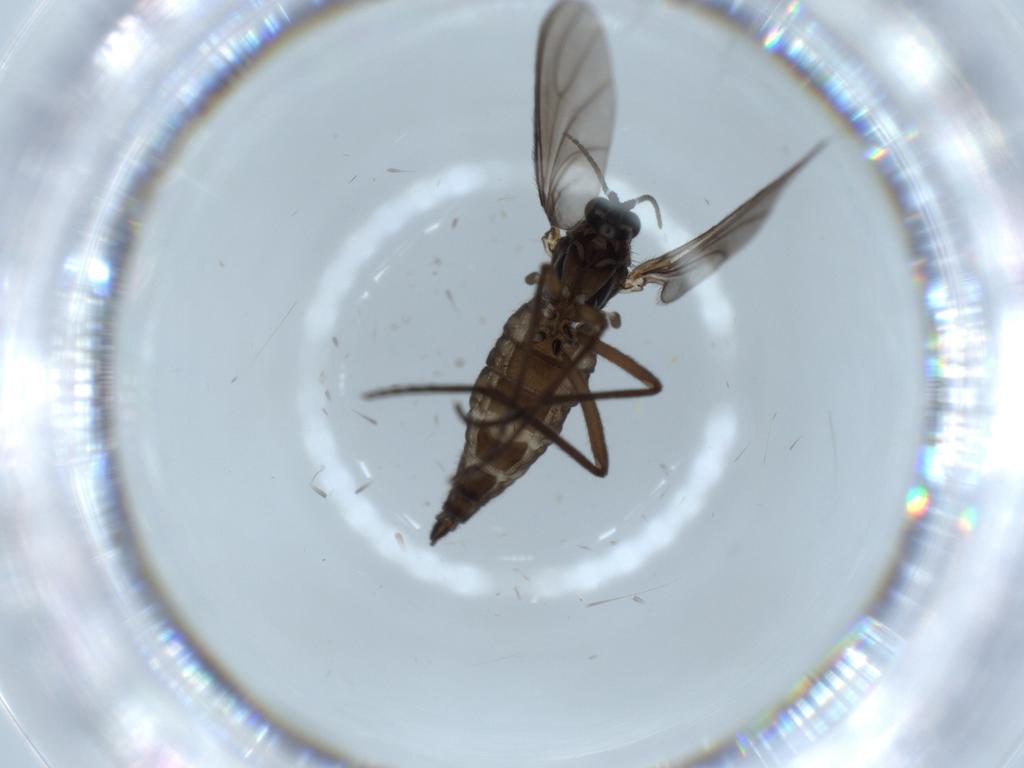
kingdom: Animalia
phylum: Arthropoda
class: Insecta
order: Diptera
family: Sciaridae
